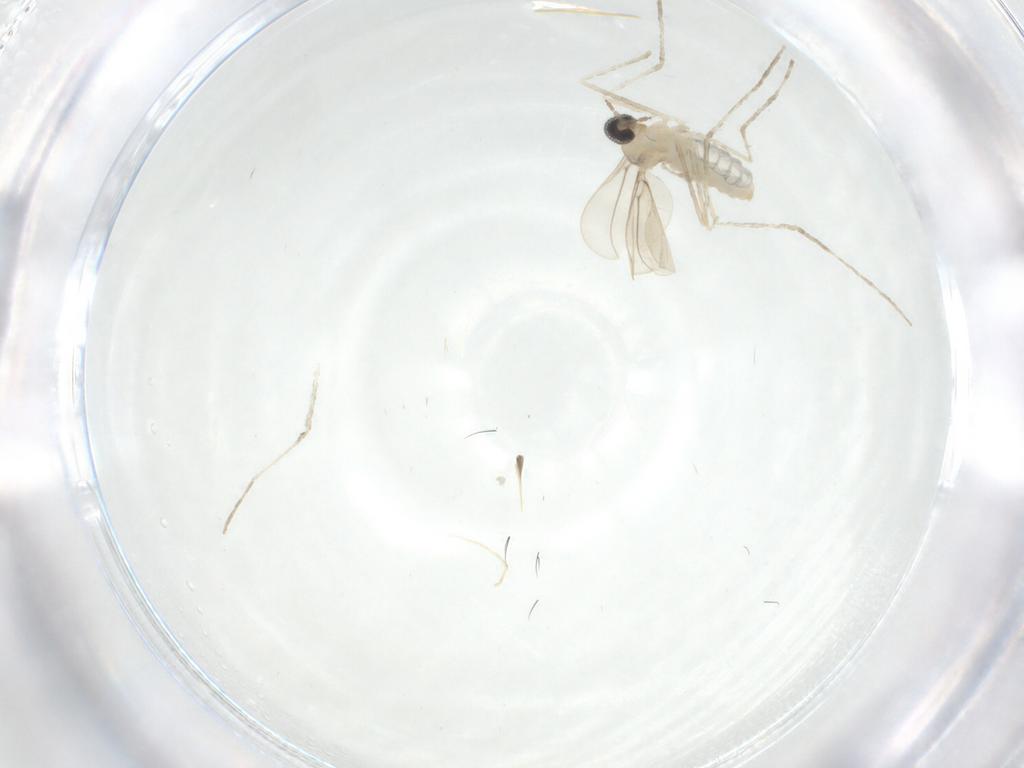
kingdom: Animalia
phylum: Arthropoda
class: Insecta
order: Diptera
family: Cecidomyiidae
